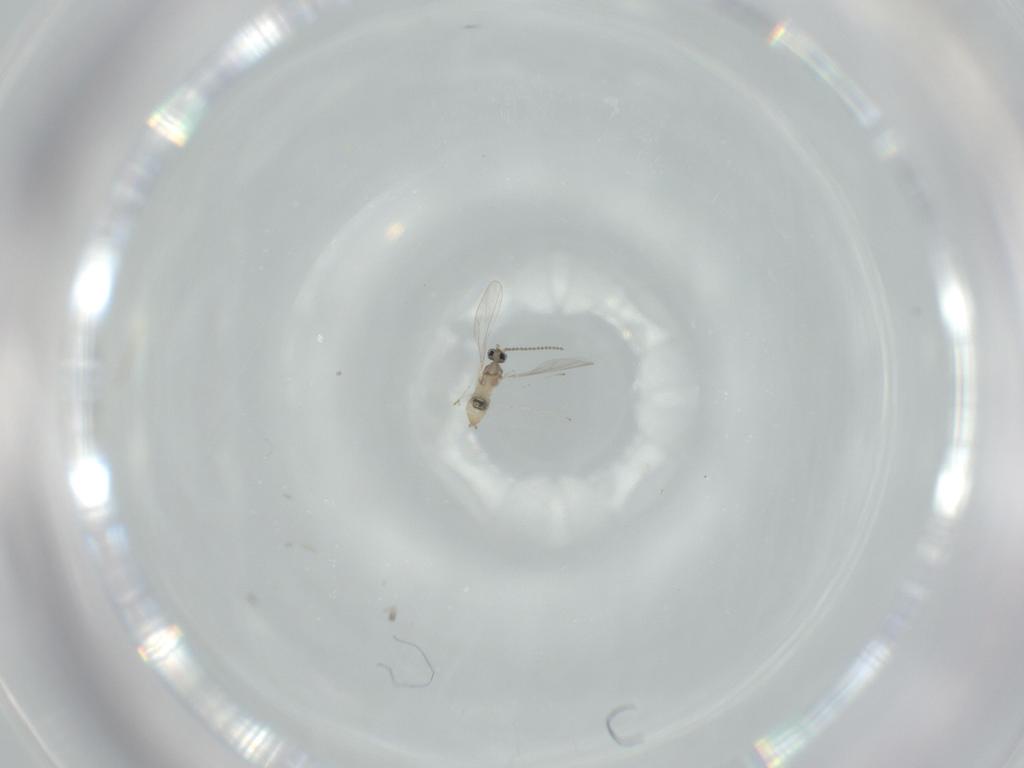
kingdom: Animalia
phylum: Arthropoda
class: Insecta
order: Diptera
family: Cecidomyiidae
